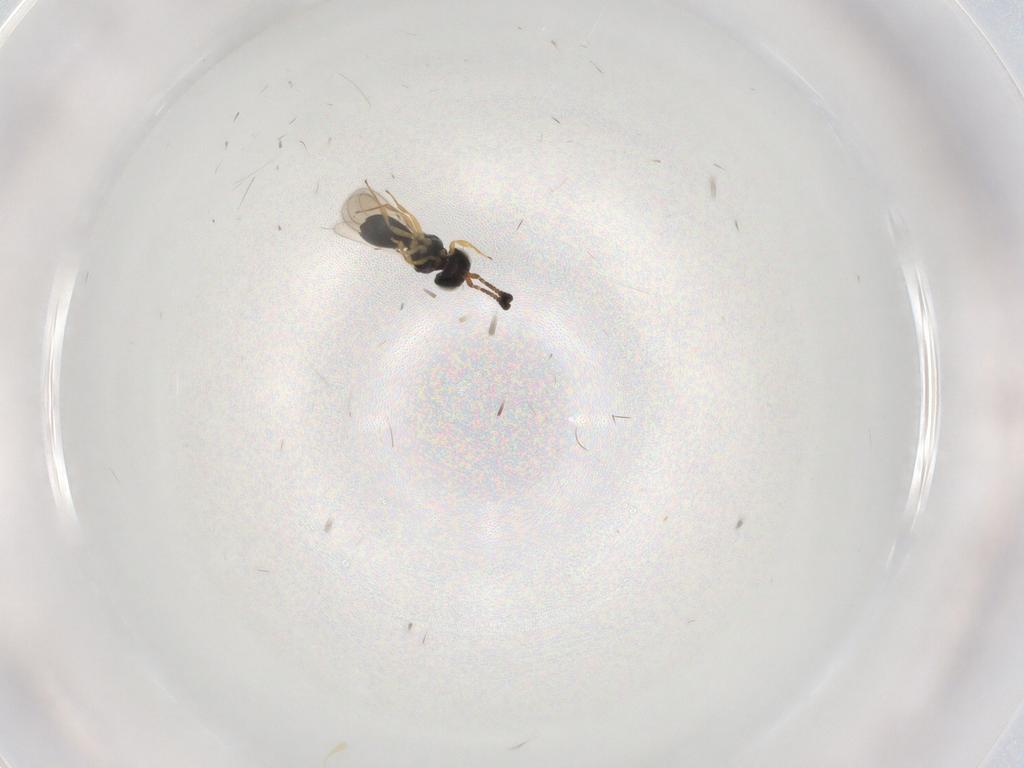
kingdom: Animalia
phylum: Arthropoda
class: Insecta
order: Hymenoptera
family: Scelionidae
